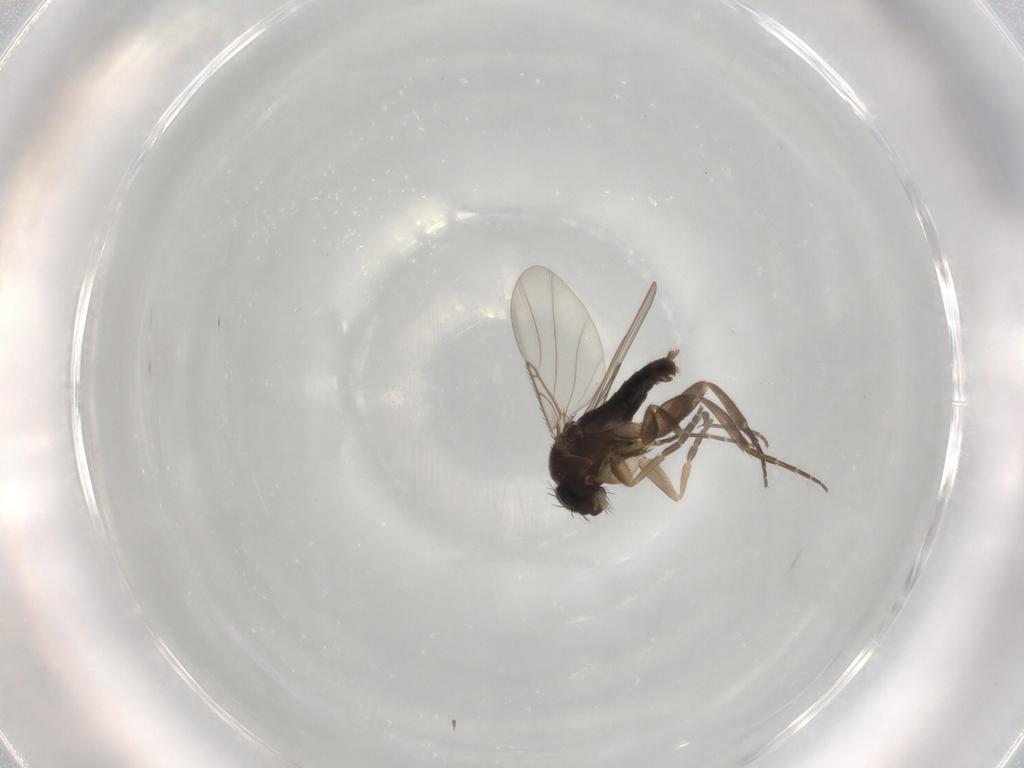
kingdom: Animalia
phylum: Arthropoda
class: Insecta
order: Diptera
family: Phoridae
